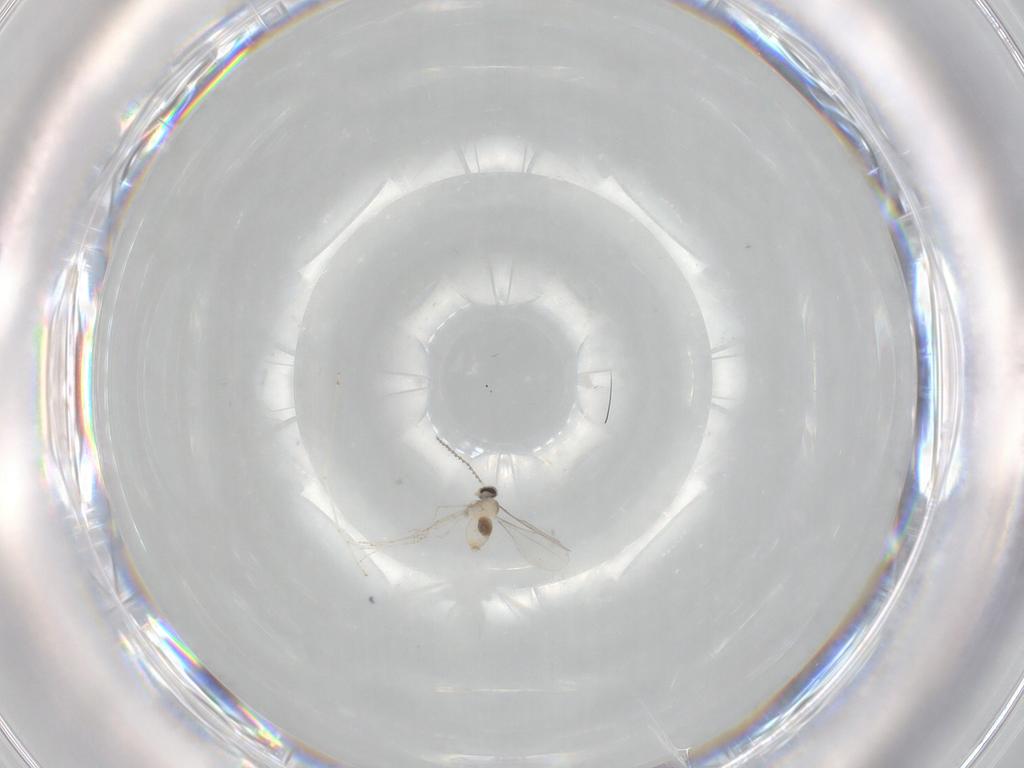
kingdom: Animalia
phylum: Arthropoda
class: Insecta
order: Diptera
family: Cecidomyiidae
